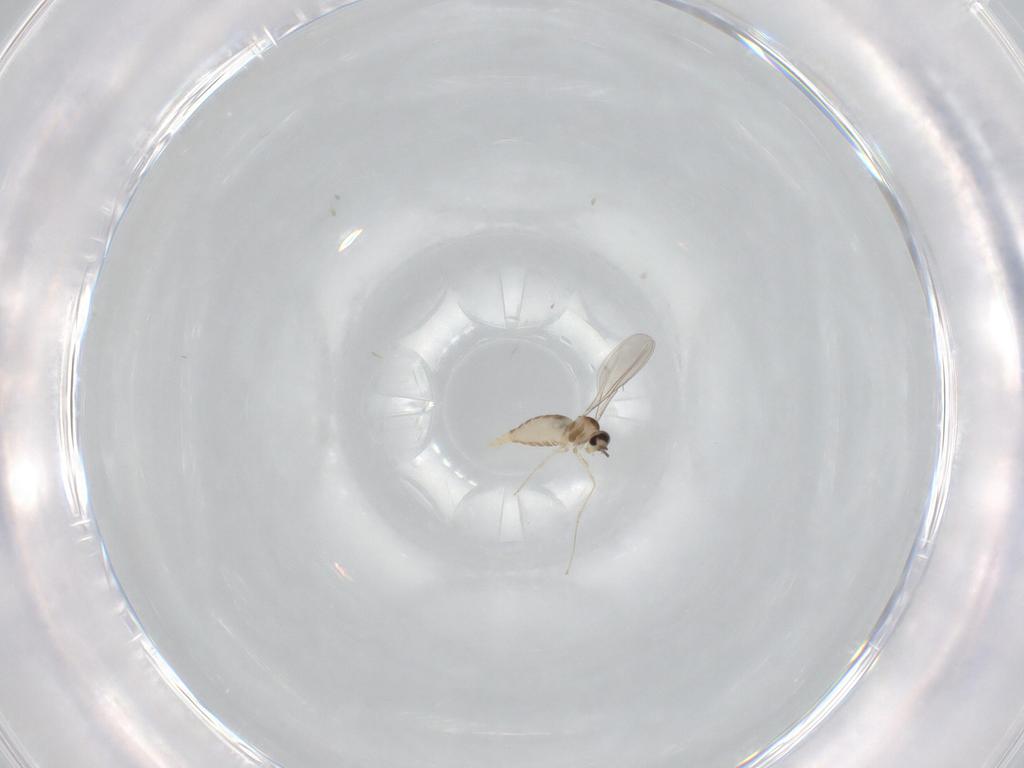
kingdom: Animalia
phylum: Arthropoda
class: Insecta
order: Diptera
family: Cecidomyiidae
